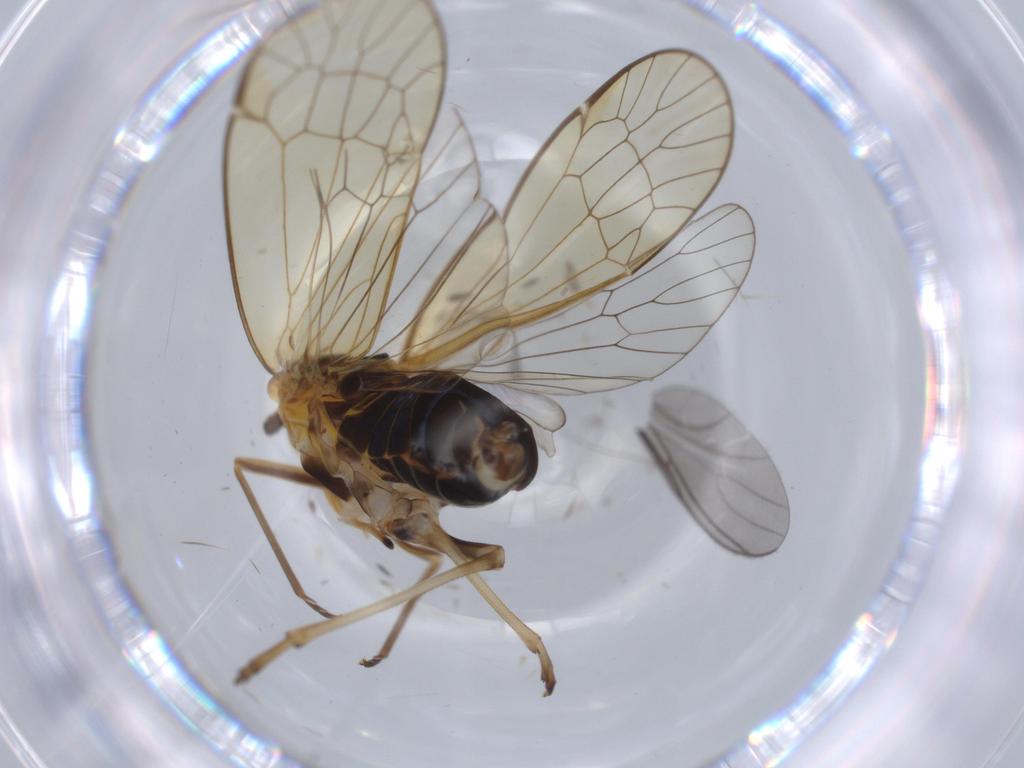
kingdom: Animalia
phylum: Arthropoda
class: Insecta
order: Hemiptera
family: Kinnaridae
